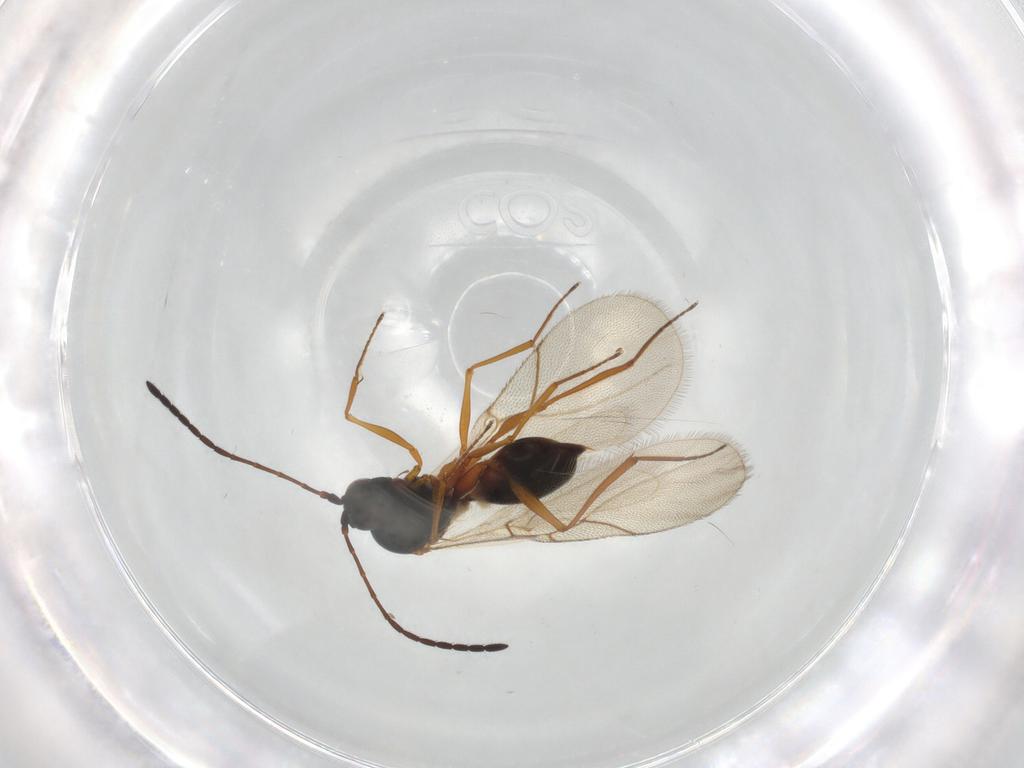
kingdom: Animalia
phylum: Arthropoda
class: Insecta
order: Hymenoptera
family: Figitidae
